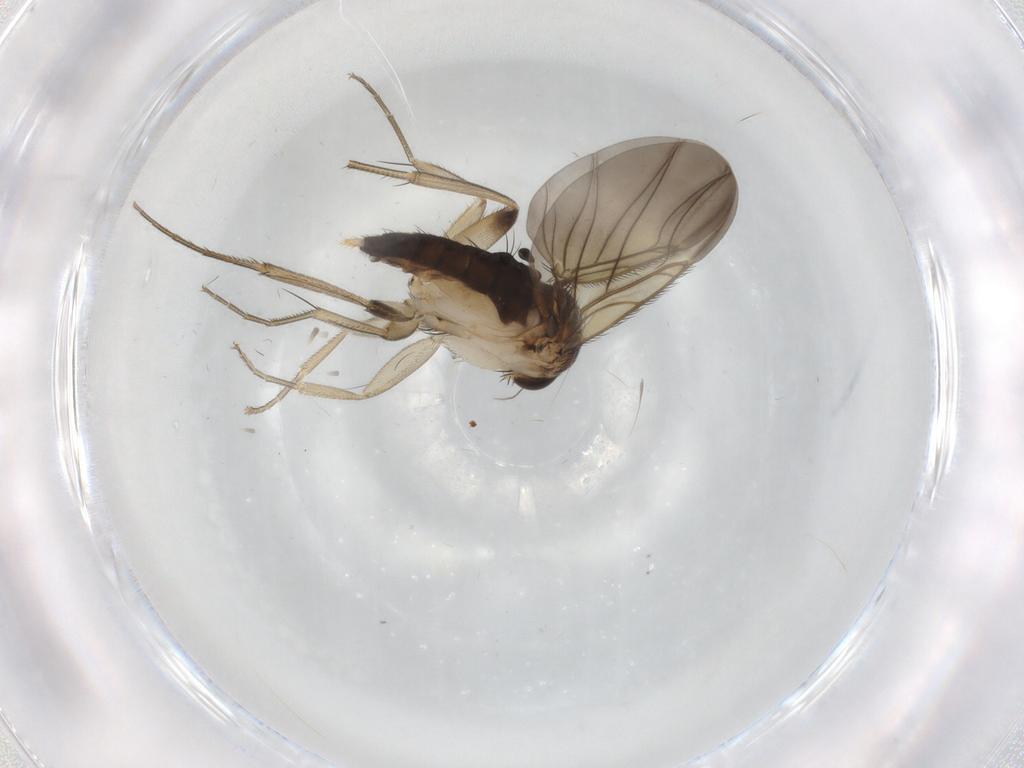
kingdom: Animalia
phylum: Arthropoda
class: Insecta
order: Diptera
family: Phoridae
